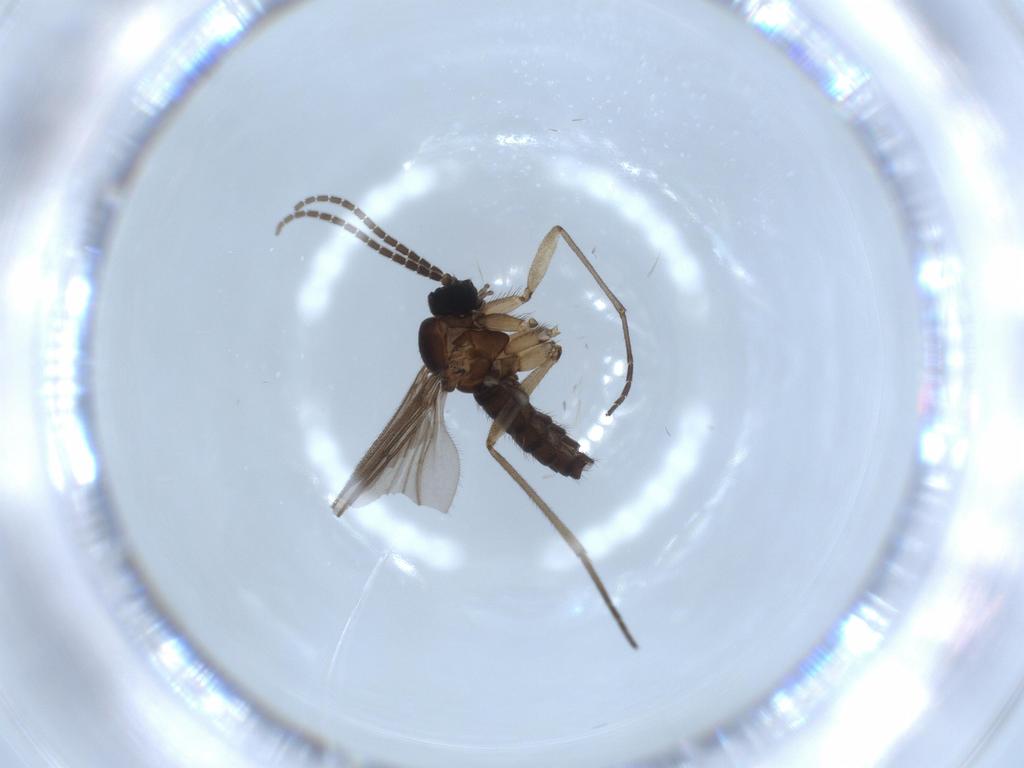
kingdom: Animalia
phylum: Arthropoda
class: Insecta
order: Diptera
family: Sciaridae
